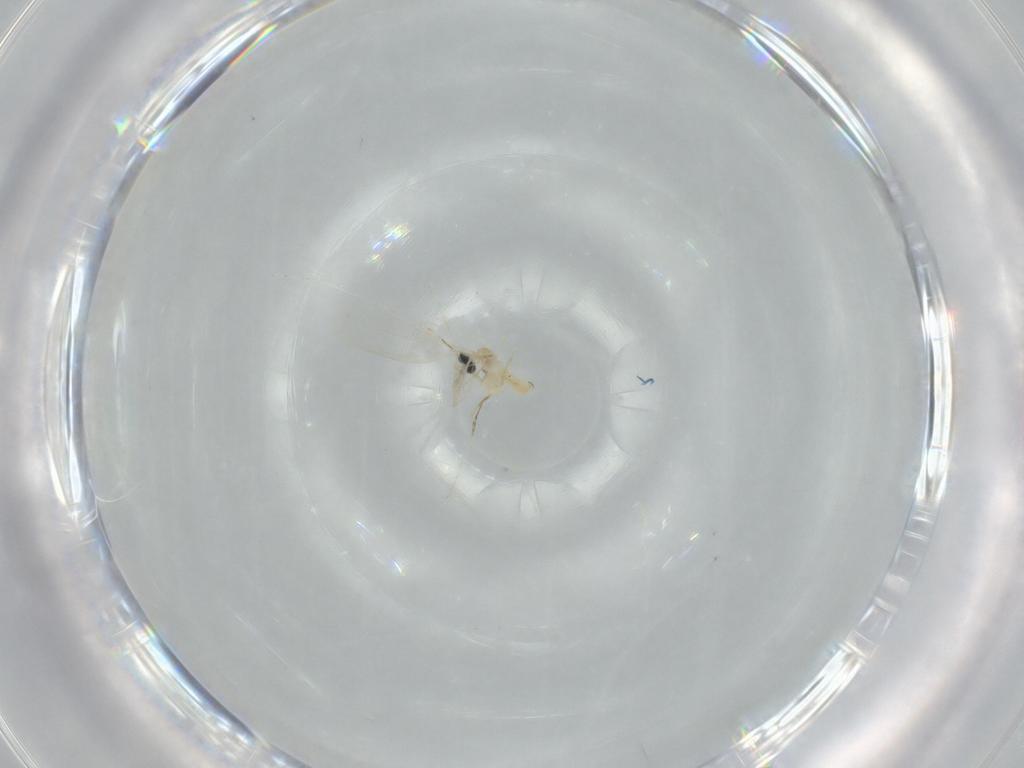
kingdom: Animalia
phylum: Arthropoda
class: Insecta
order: Diptera
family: Cecidomyiidae
